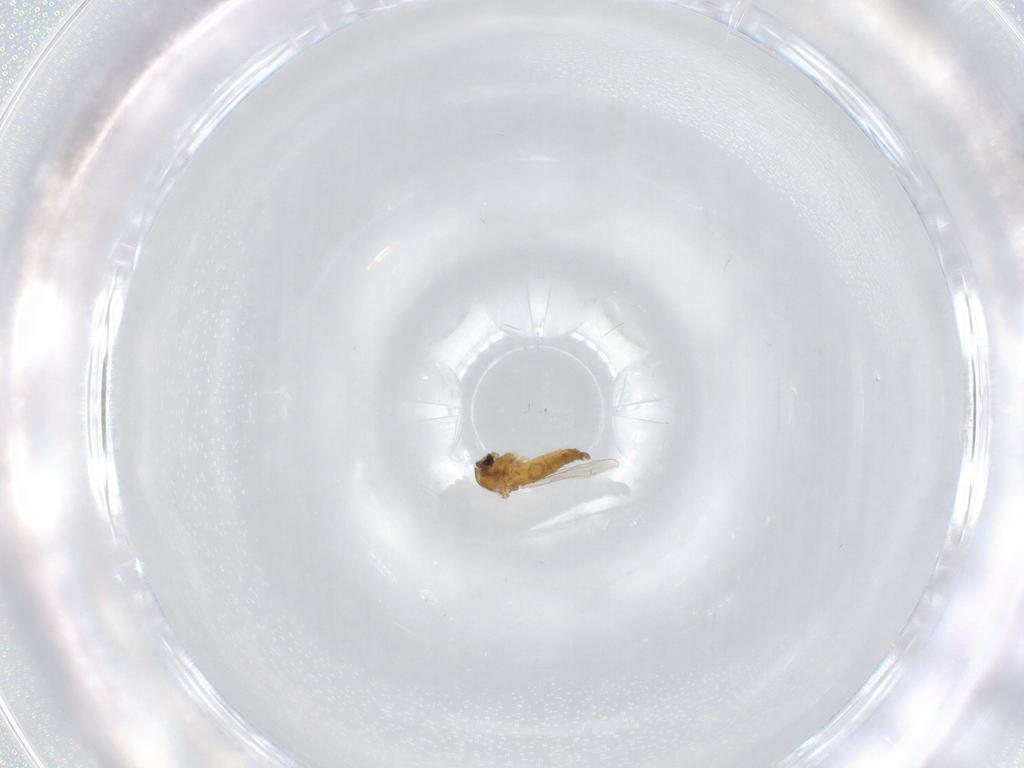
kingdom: Animalia
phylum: Arthropoda
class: Insecta
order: Diptera
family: Chironomidae
